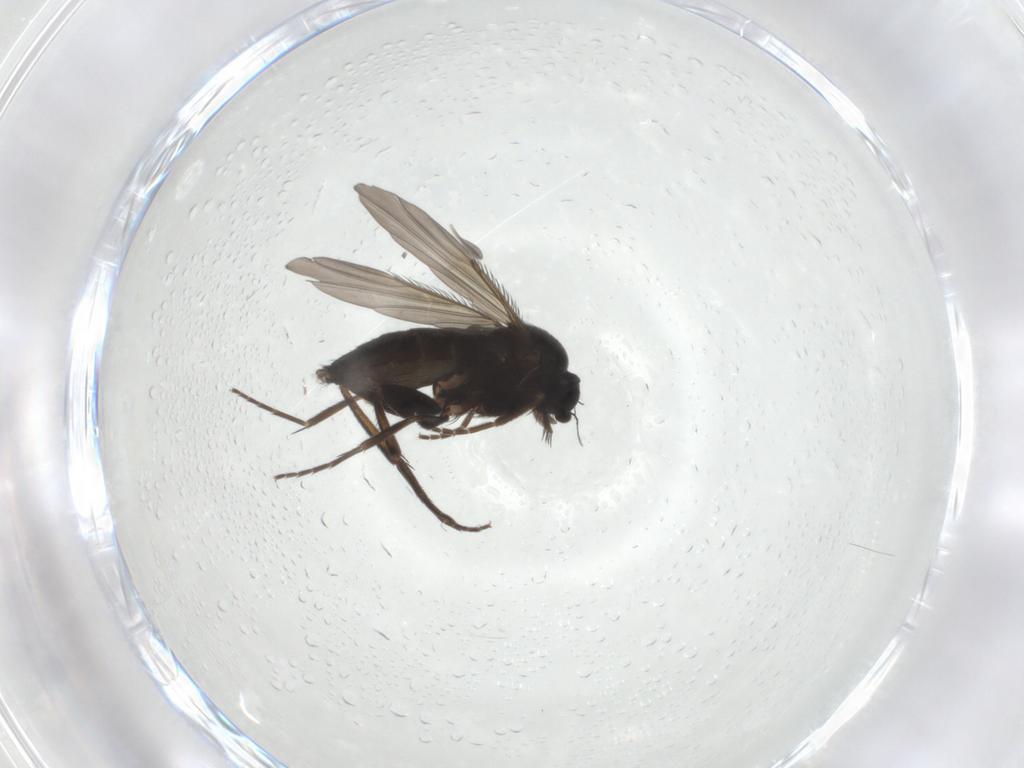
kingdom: Animalia
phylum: Arthropoda
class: Insecta
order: Diptera
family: Phoridae
